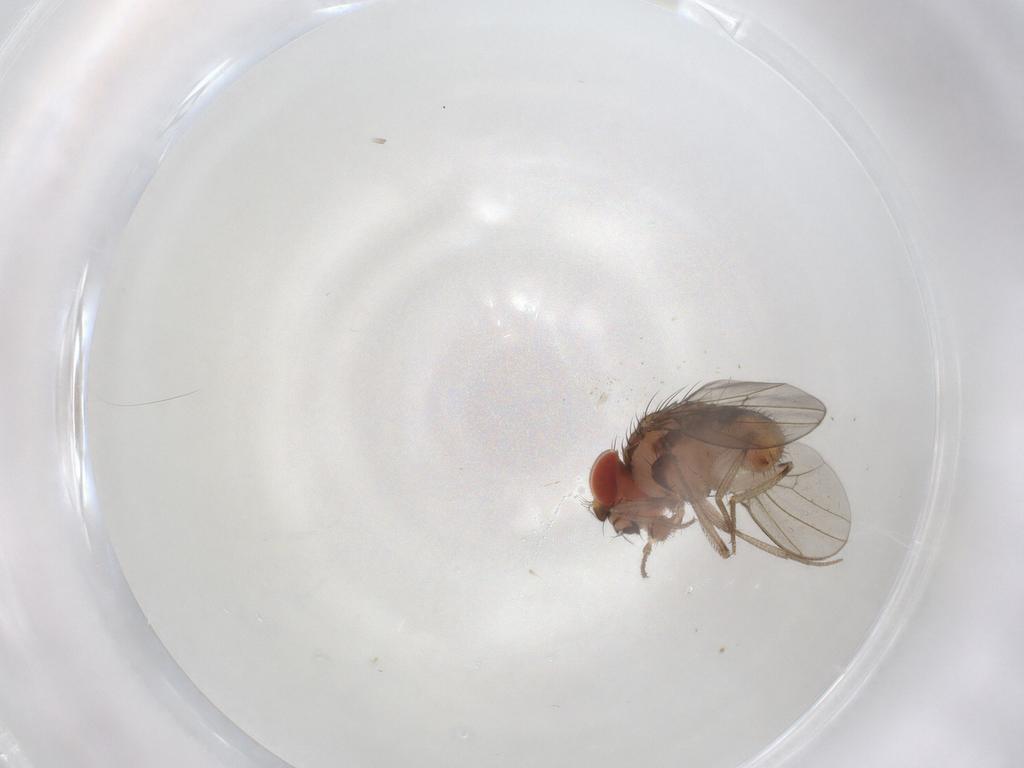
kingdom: Animalia
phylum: Arthropoda
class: Insecta
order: Diptera
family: Drosophilidae
